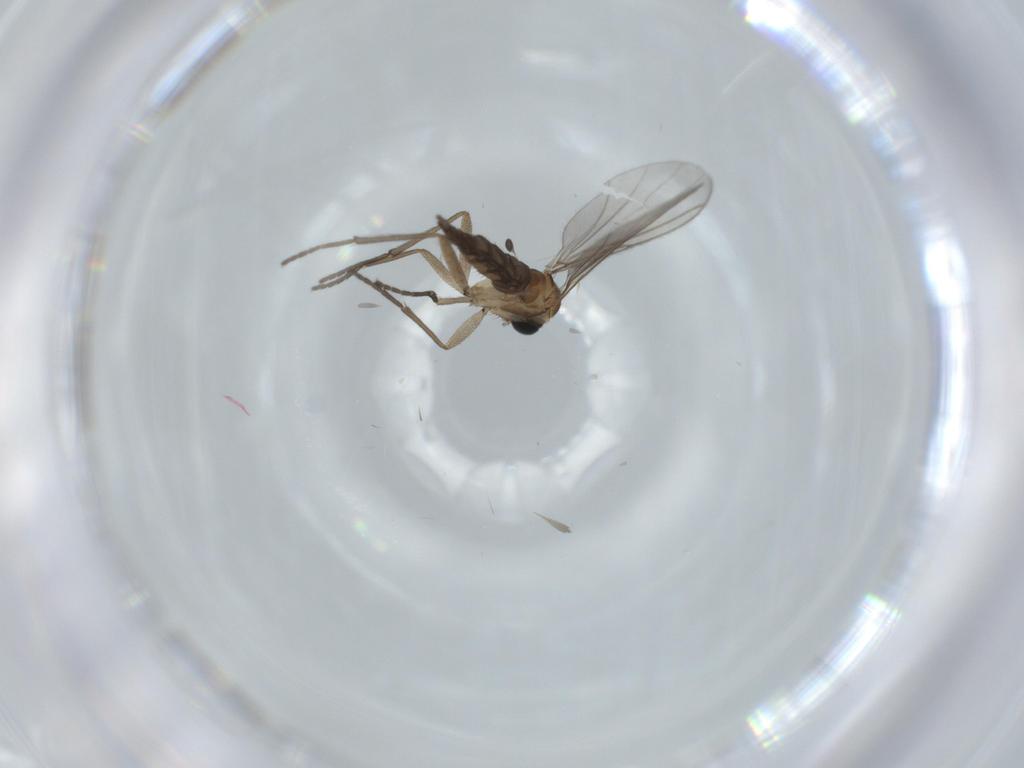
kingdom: Animalia
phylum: Arthropoda
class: Insecta
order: Diptera
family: Sciaridae
